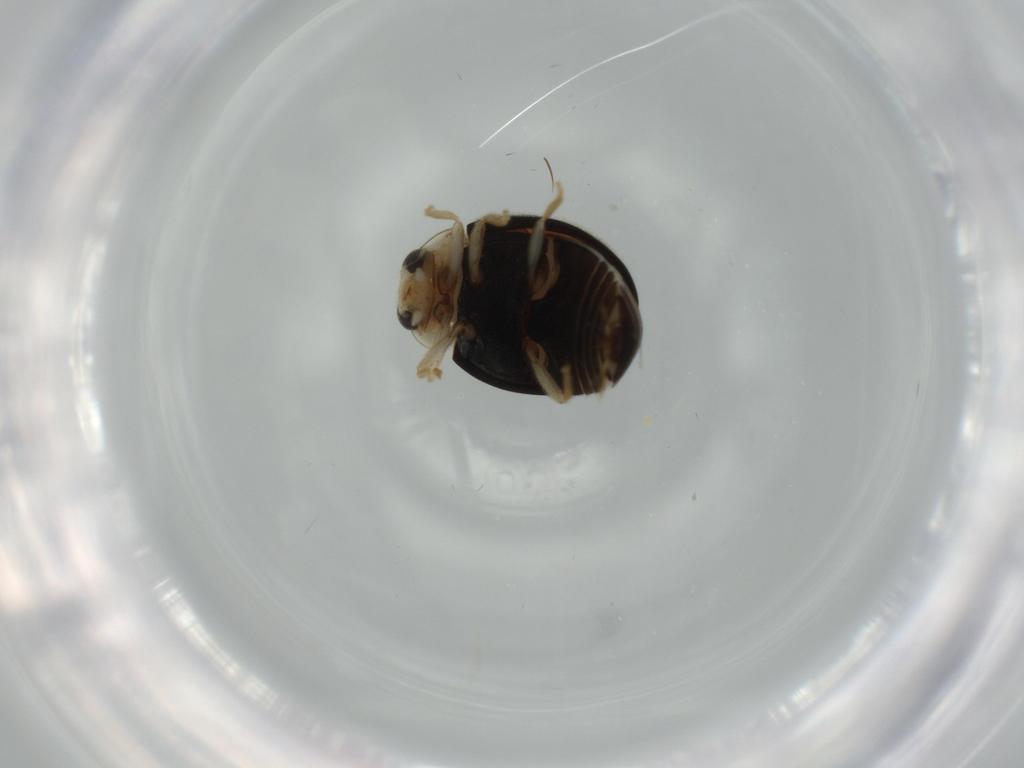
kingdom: Animalia
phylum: Arthropoda
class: Insecta
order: Coleoptera
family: Coccinellidae
